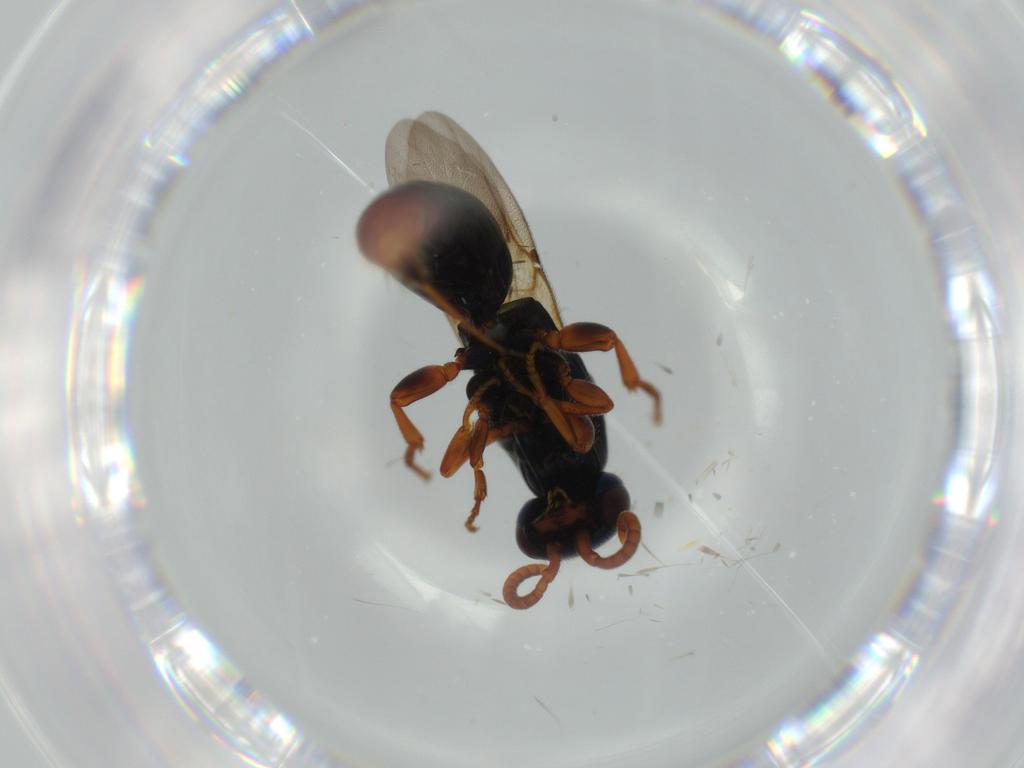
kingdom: Animalia
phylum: Arthropoda
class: Insecta
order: Hymenoptera
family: Bethylidae
